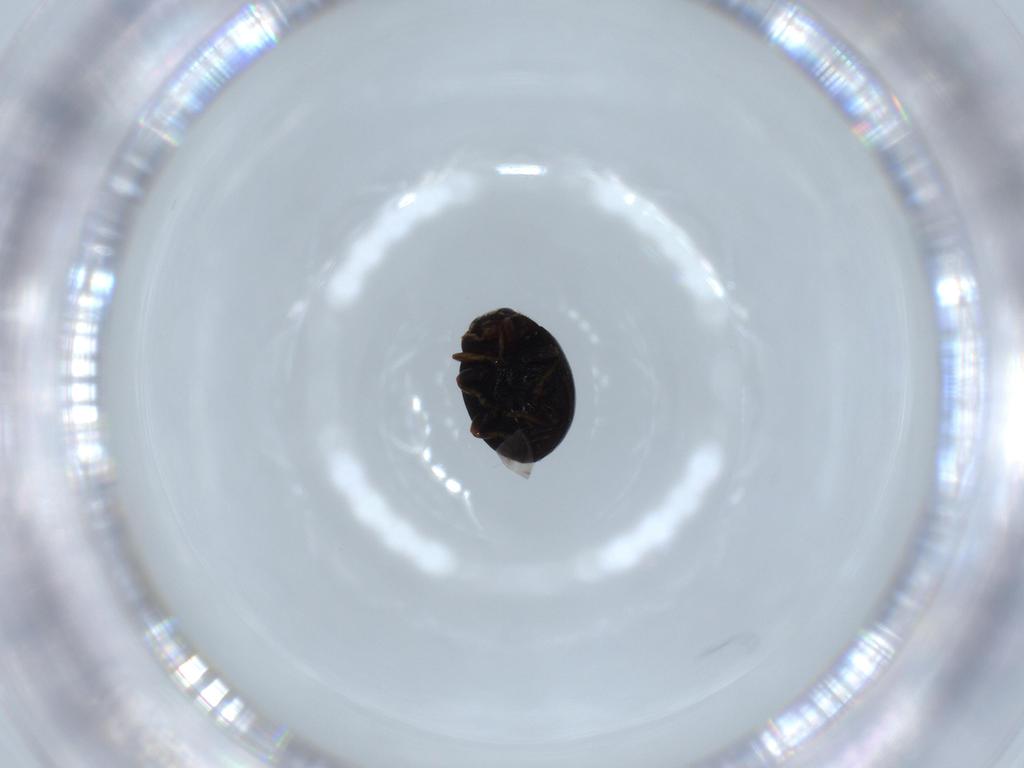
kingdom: Animalia
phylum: Arthropoda
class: Insecta
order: Coleoptera
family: Coccinellidae
